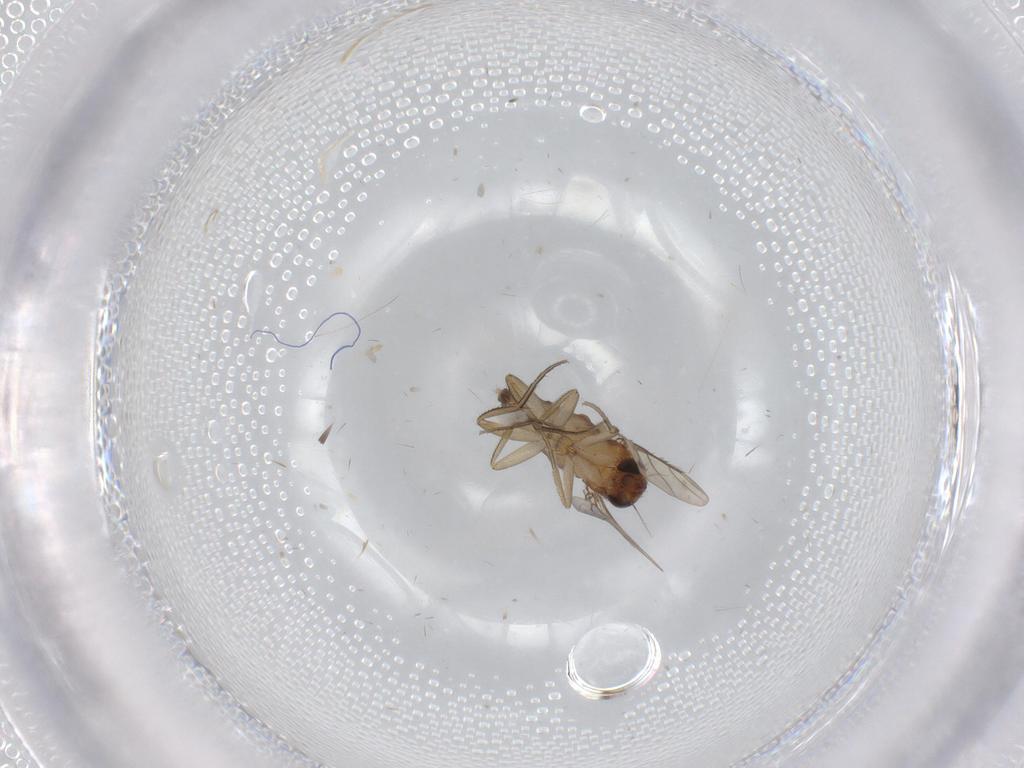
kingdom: Animalia
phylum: Arthropoda
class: Insecta
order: Diptera
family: Phoridae
